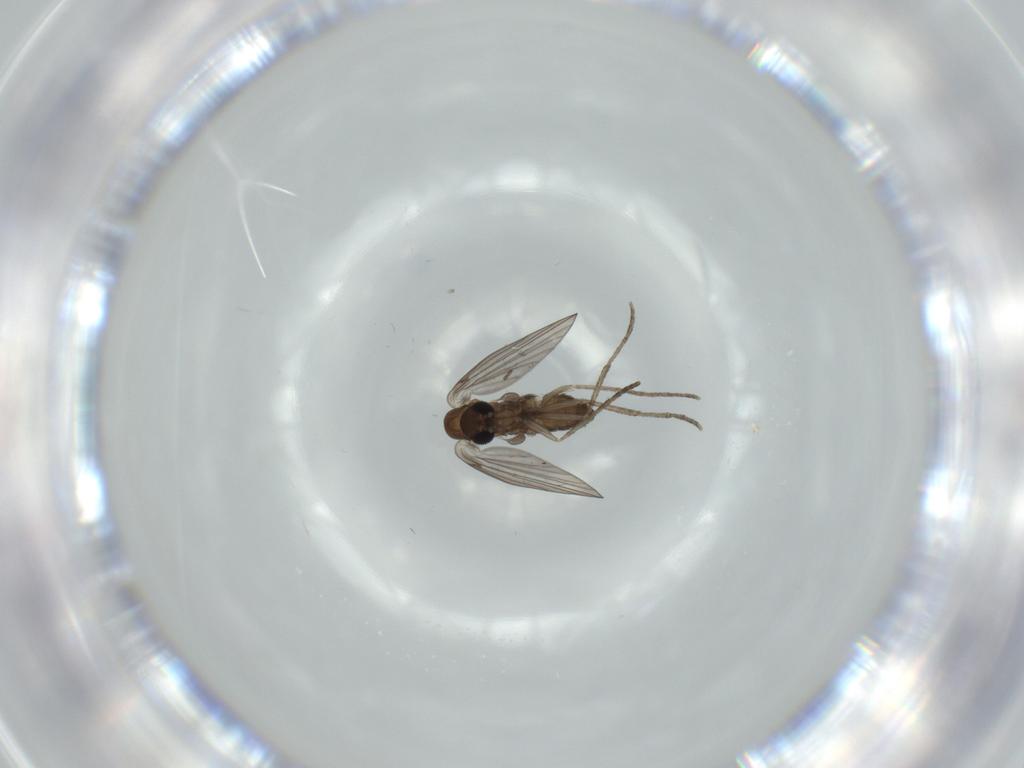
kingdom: Animalia
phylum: Arthropoda
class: Insecta
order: Diptera
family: Psychodidae
